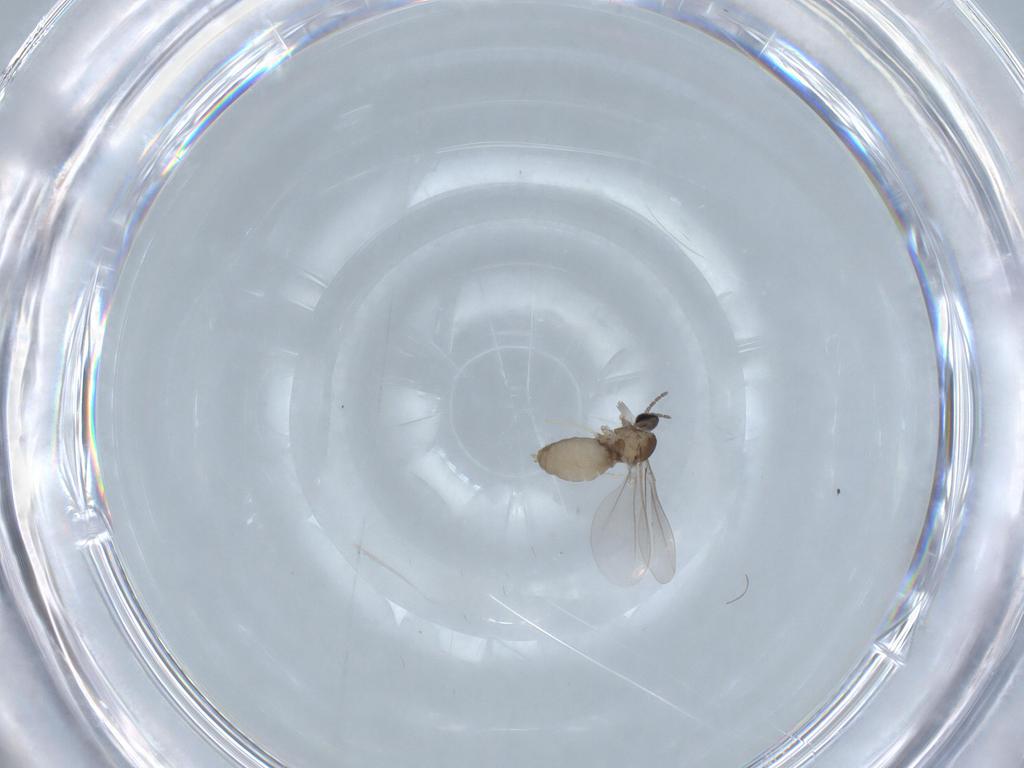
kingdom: Animalia
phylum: Arthropoda
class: Insecta
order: Diptera
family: Chironomidae
